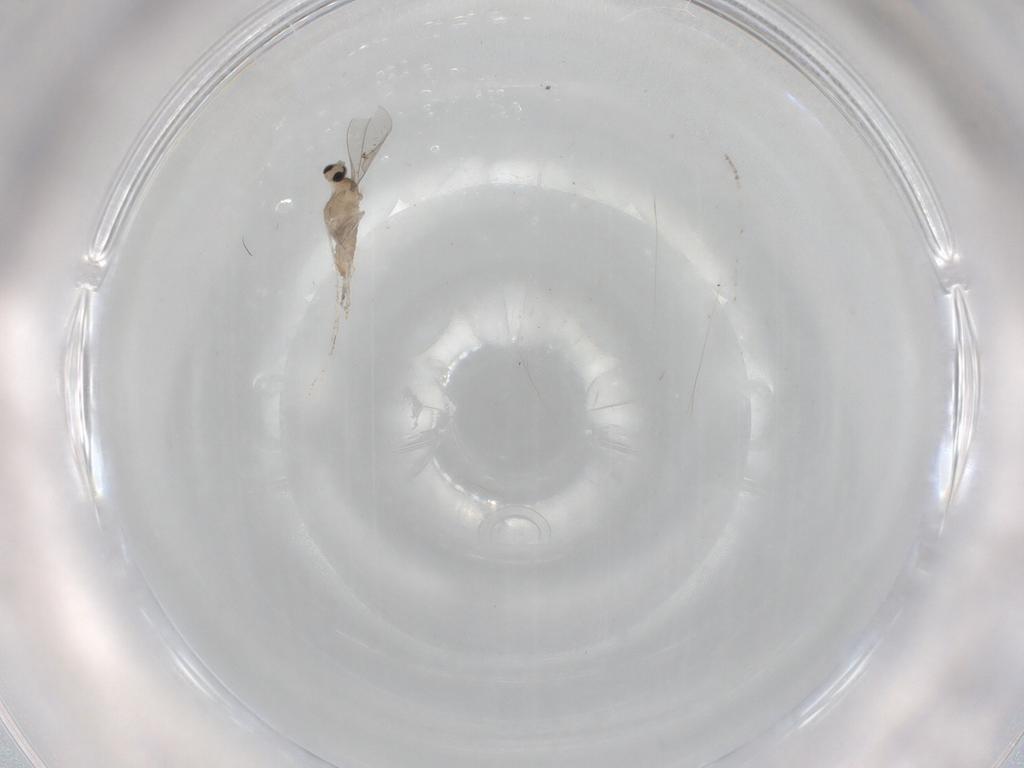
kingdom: Animalia
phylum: Arthropoda
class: Insecta
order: Diptera
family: Cecidomyiidae
